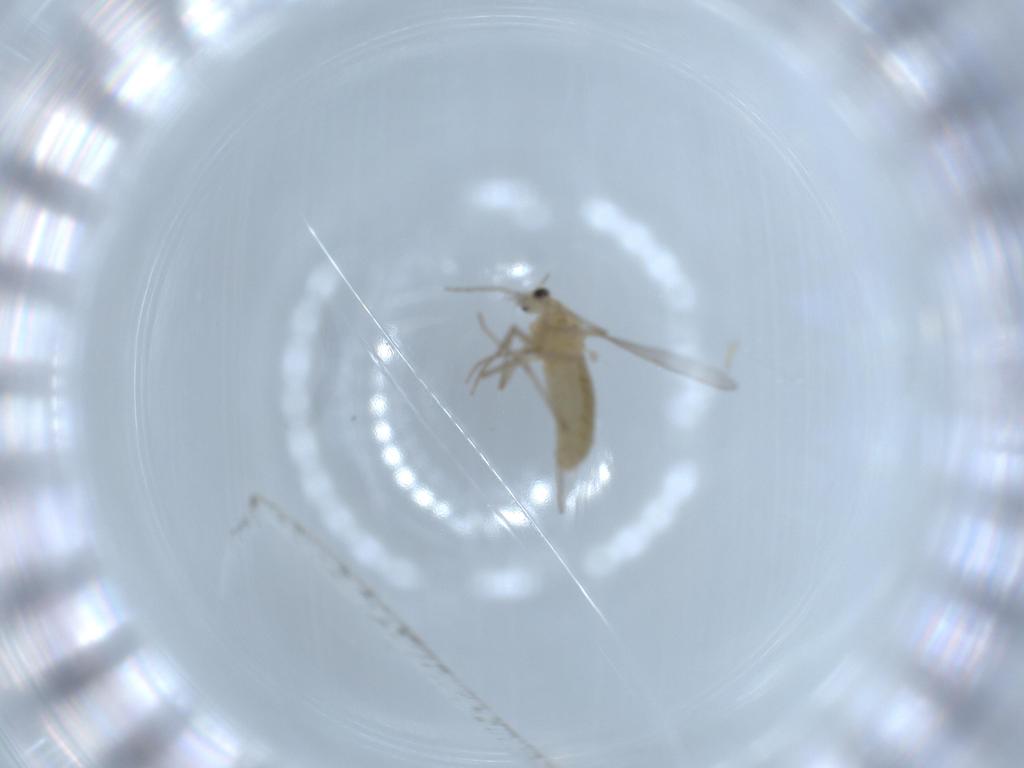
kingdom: Animalia
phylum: Arthropoda
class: Insecta
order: Diptera
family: Chironomidae
